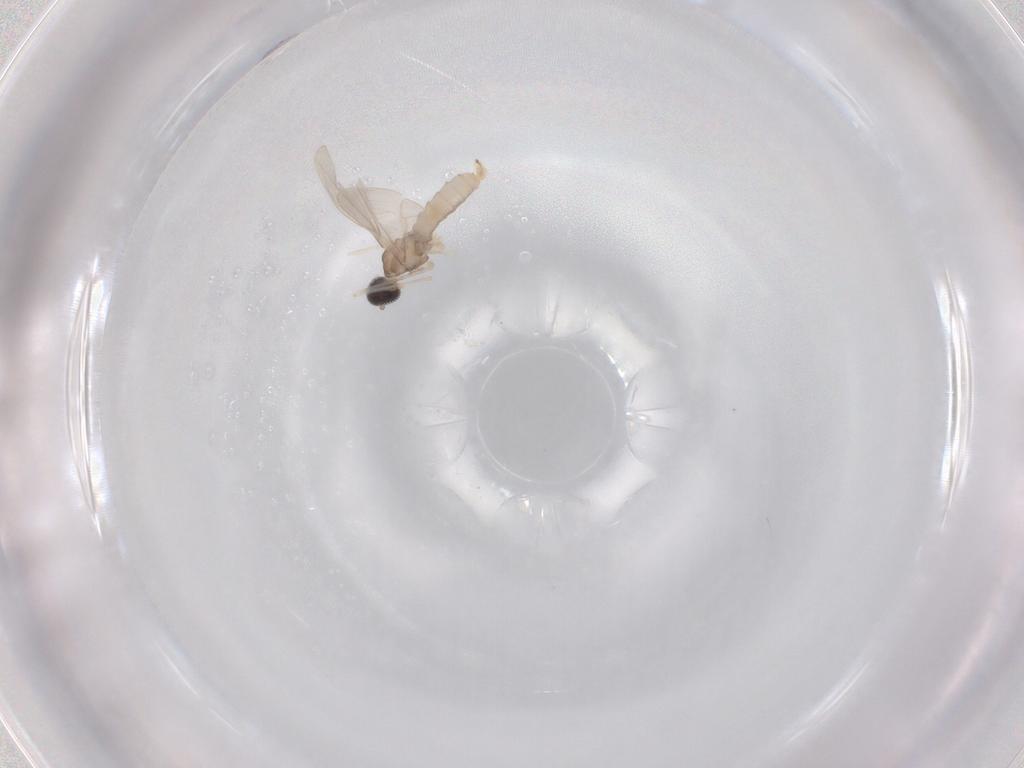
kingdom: Animalia
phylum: Arthropoda
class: Insecta
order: Diptera
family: Cecidomyiidae
